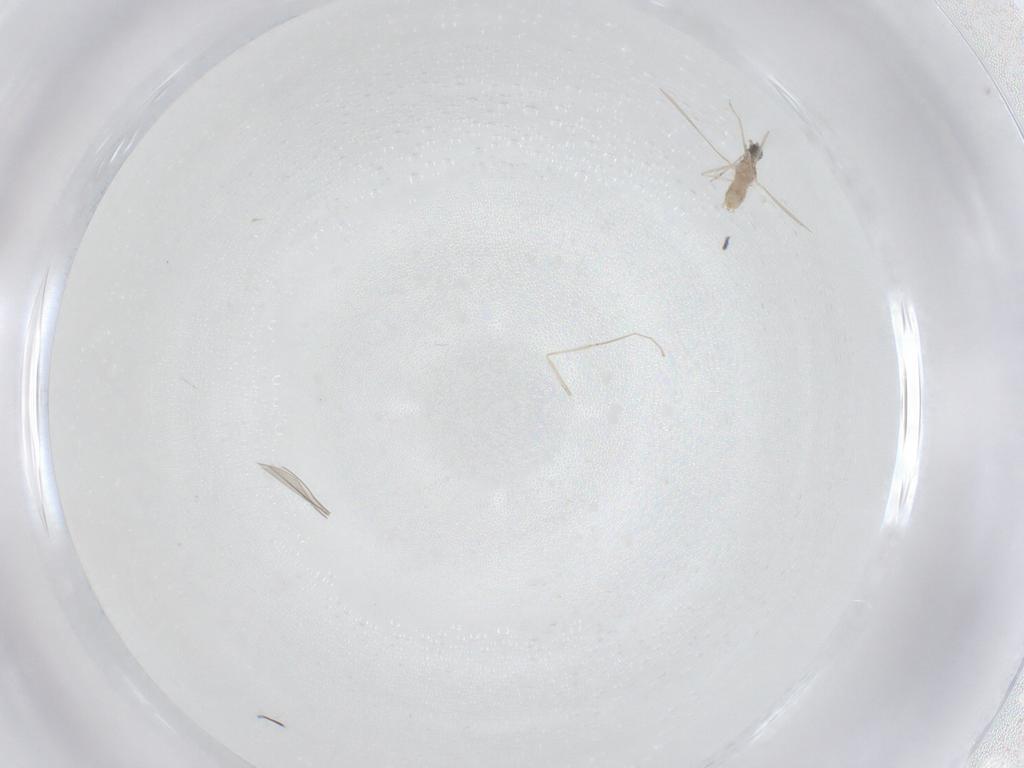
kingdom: Animalia
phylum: Arthropoda
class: Insecta
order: Diptera
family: Cecidomyiidae
